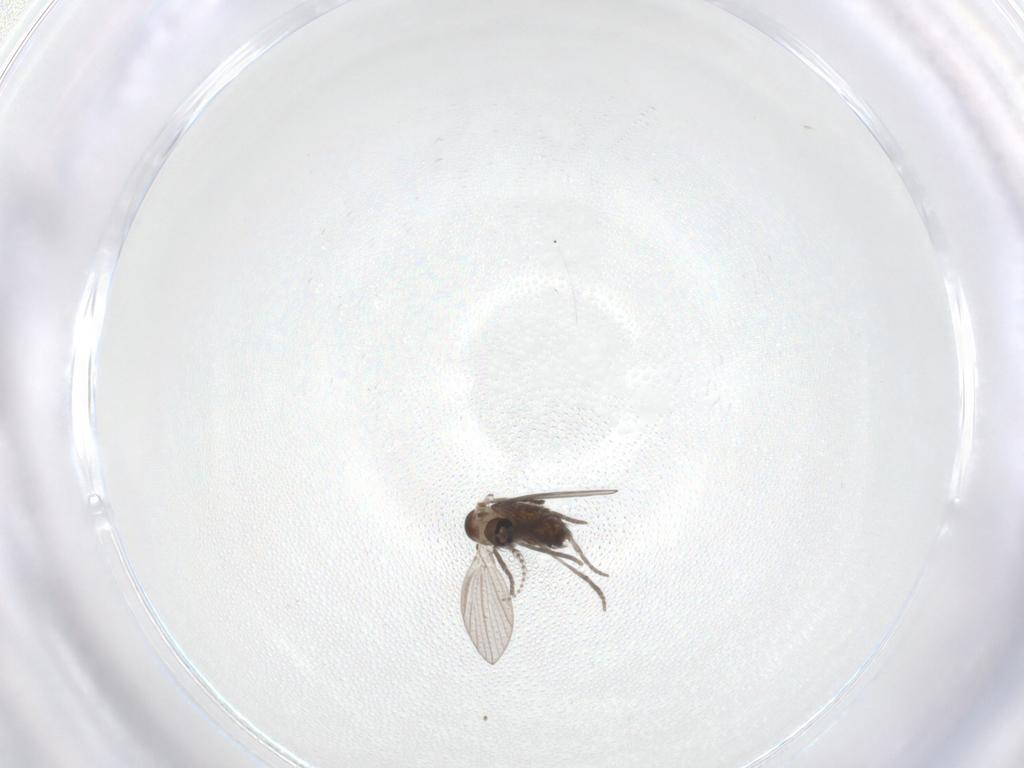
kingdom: Animalia
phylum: Arthropoda
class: Insecta
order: Diptera
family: Psychodidae
